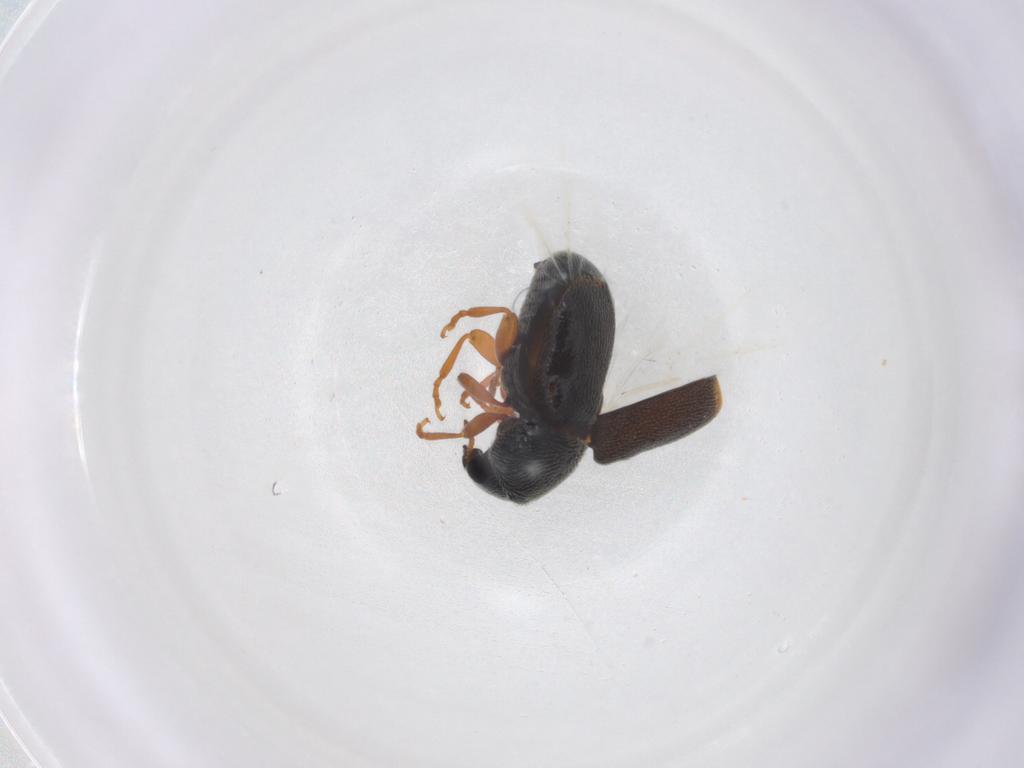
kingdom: Animalia
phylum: Arthropoda
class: Insecta
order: Coleoptera
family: Anthribidae
